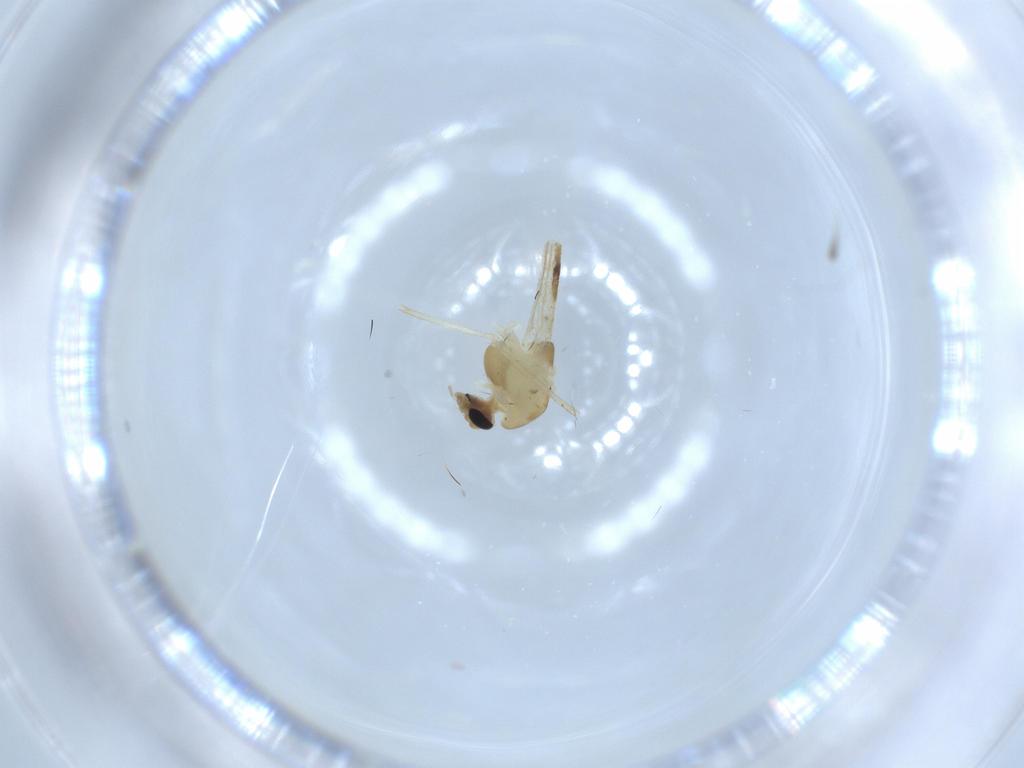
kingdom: Animalia
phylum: Arthropoda
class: Insecta
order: Diptera
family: Chironomidae
